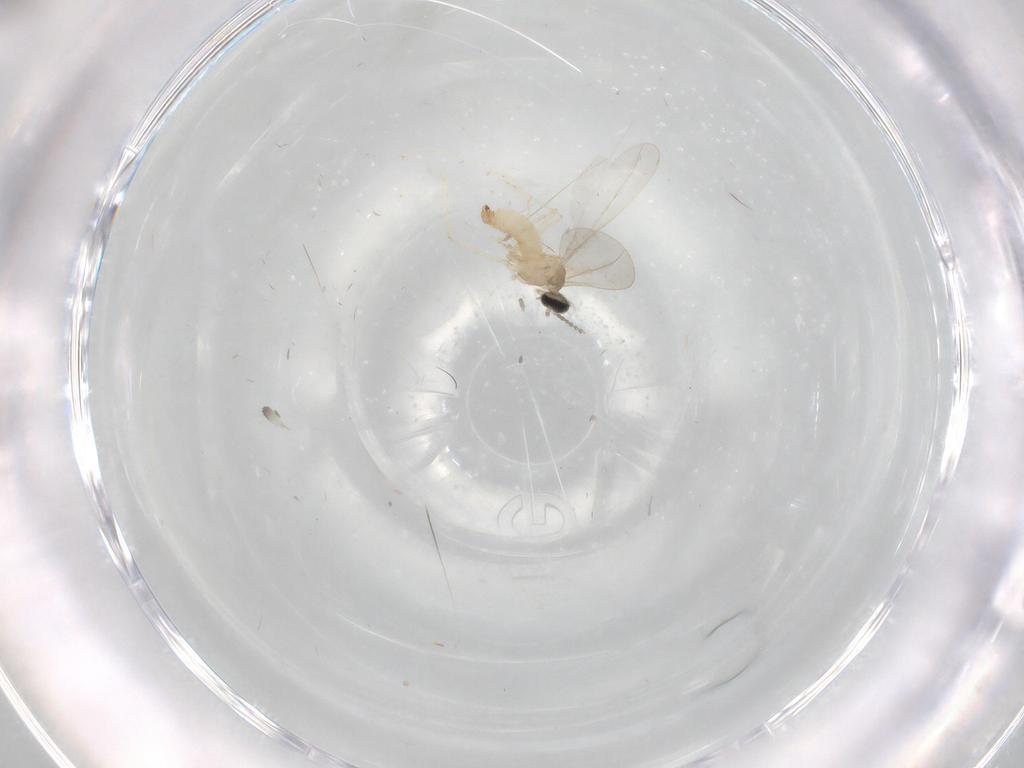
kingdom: Animalia
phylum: Arthropoda
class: Insecta
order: Diptera
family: Cecidomyiidae
